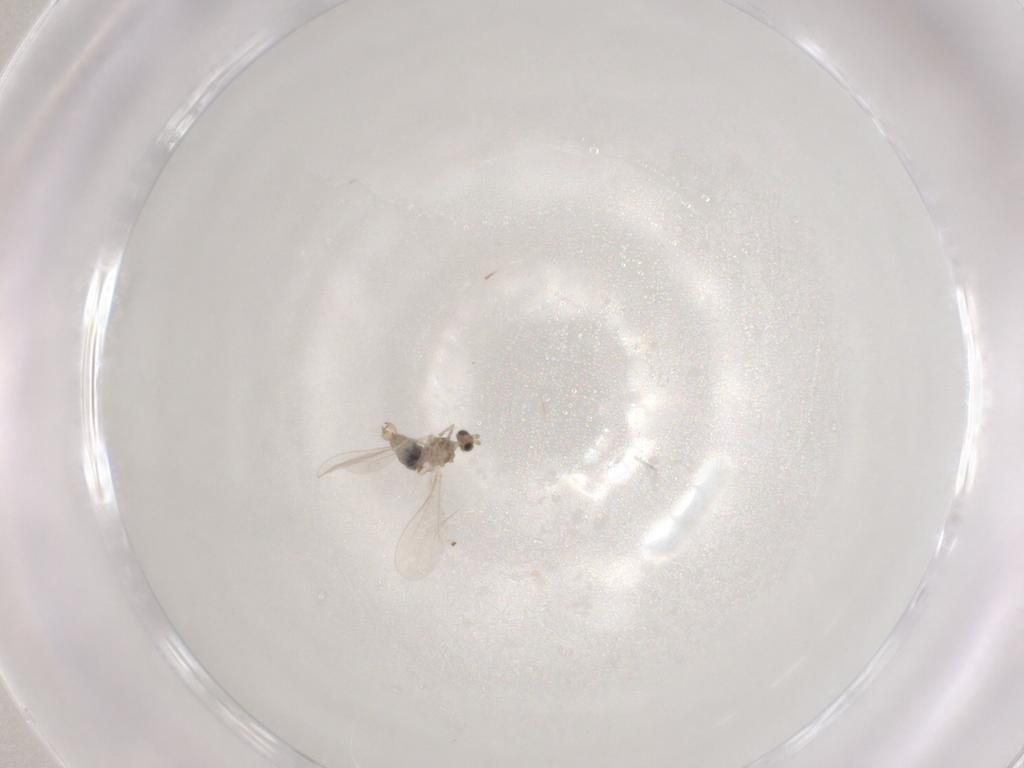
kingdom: Animalia
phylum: Arthropoda
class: Insecta
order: Diptera
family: Cecidomyiidae
